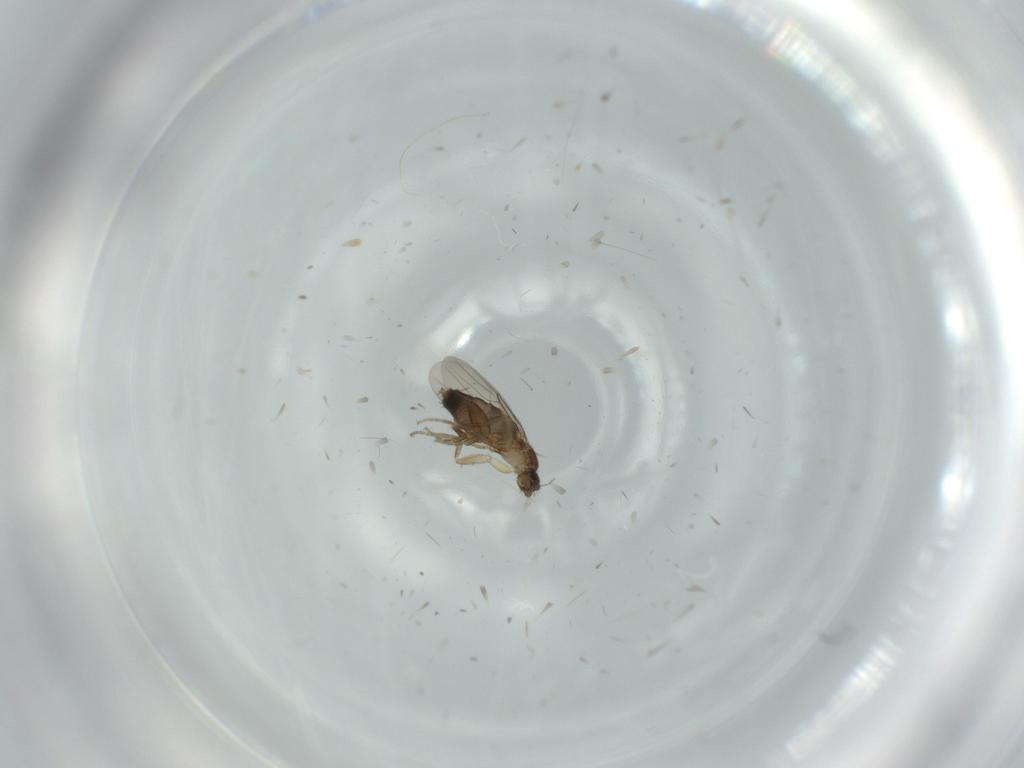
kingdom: Animalia
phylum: Arthropoda
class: Insecta
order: Diptera
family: Phoridae
